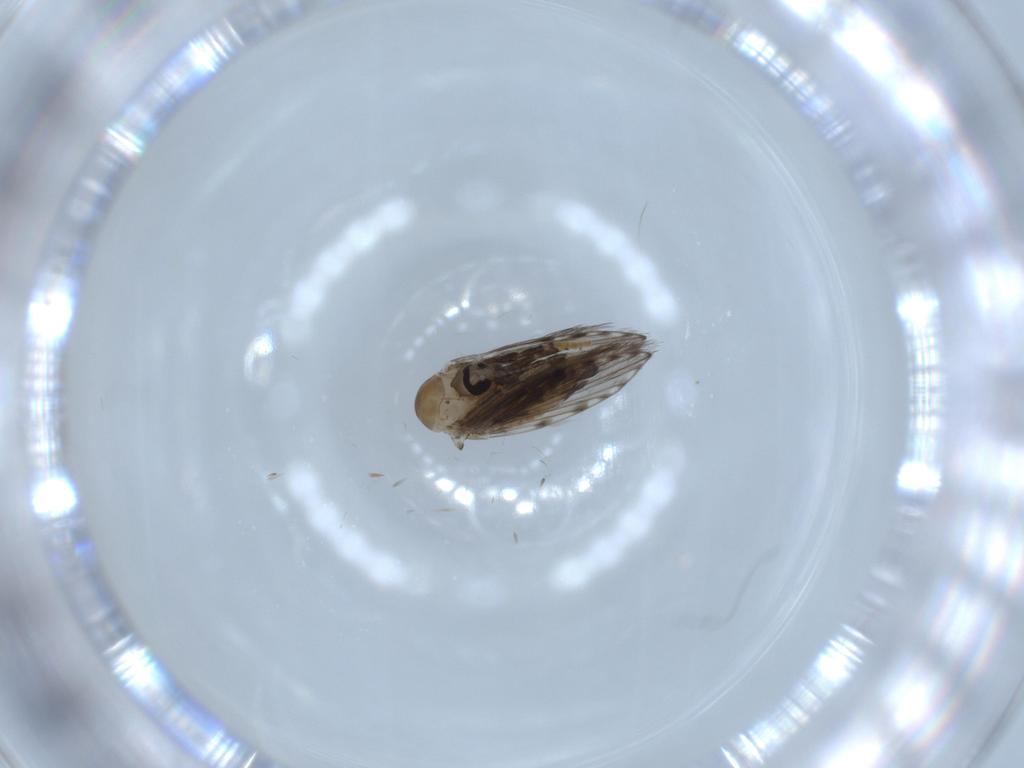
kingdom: Animalia
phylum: Arthropoda
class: Insecta
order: Diptera
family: Psychodidae
